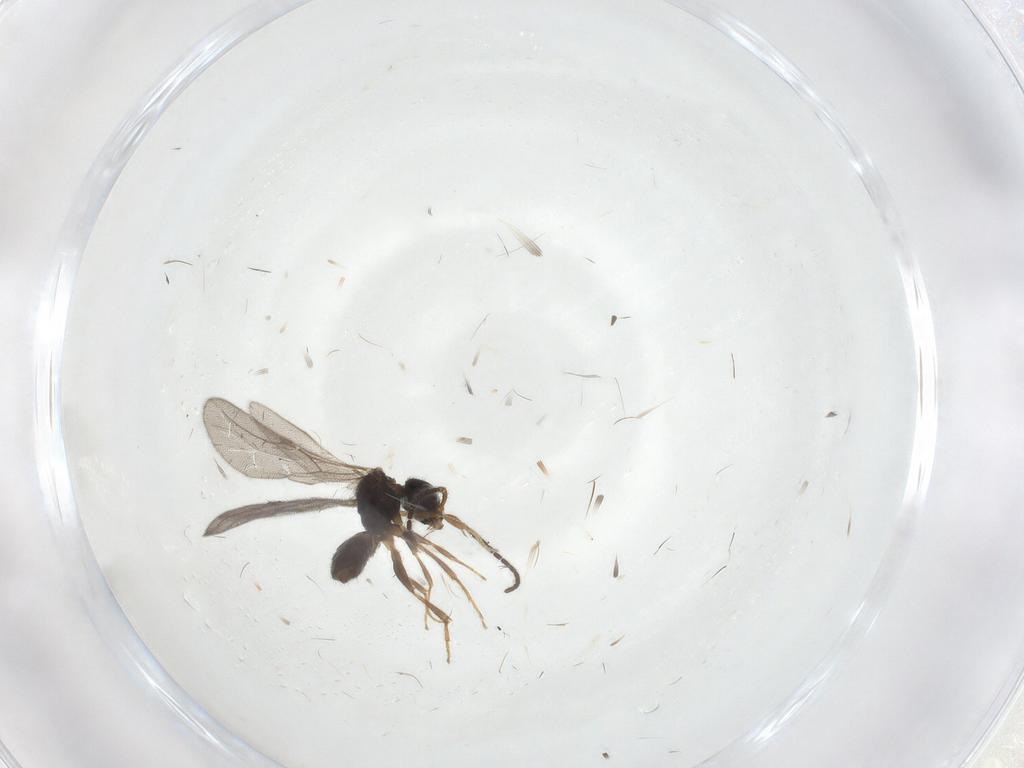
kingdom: Animalia
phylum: Arthropoda
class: Insecta
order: Hymenoptera
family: Bethylidae
